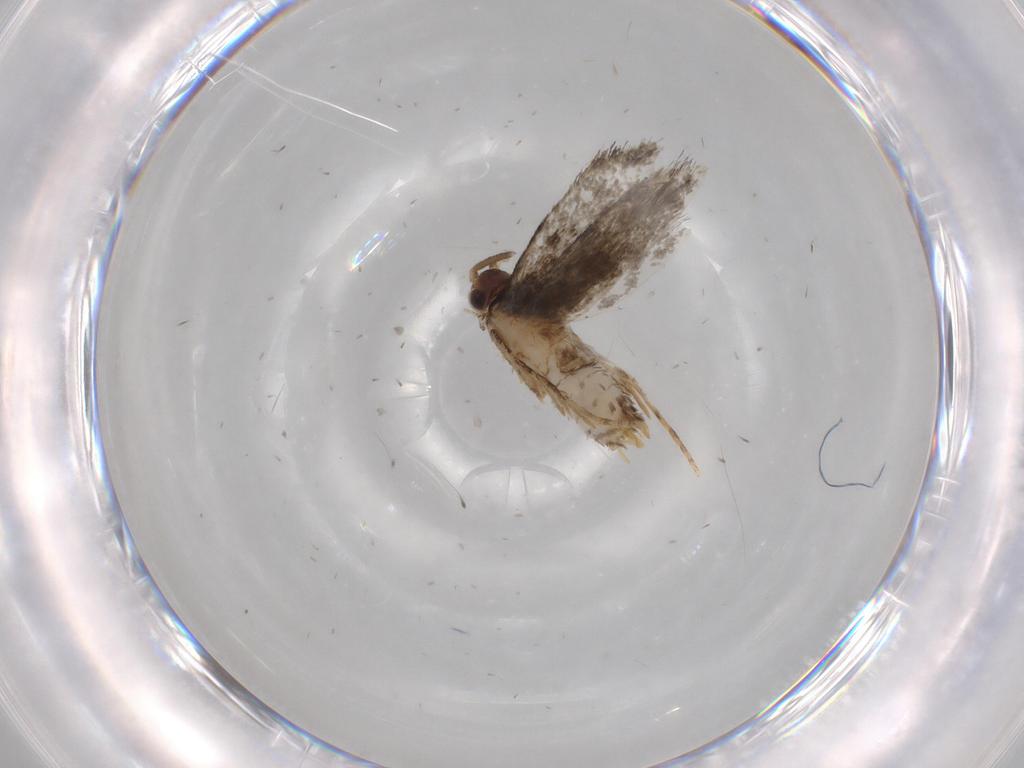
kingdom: Animalia
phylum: Arthropoda
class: Insecta
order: Lepidoptera
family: Tineidae
